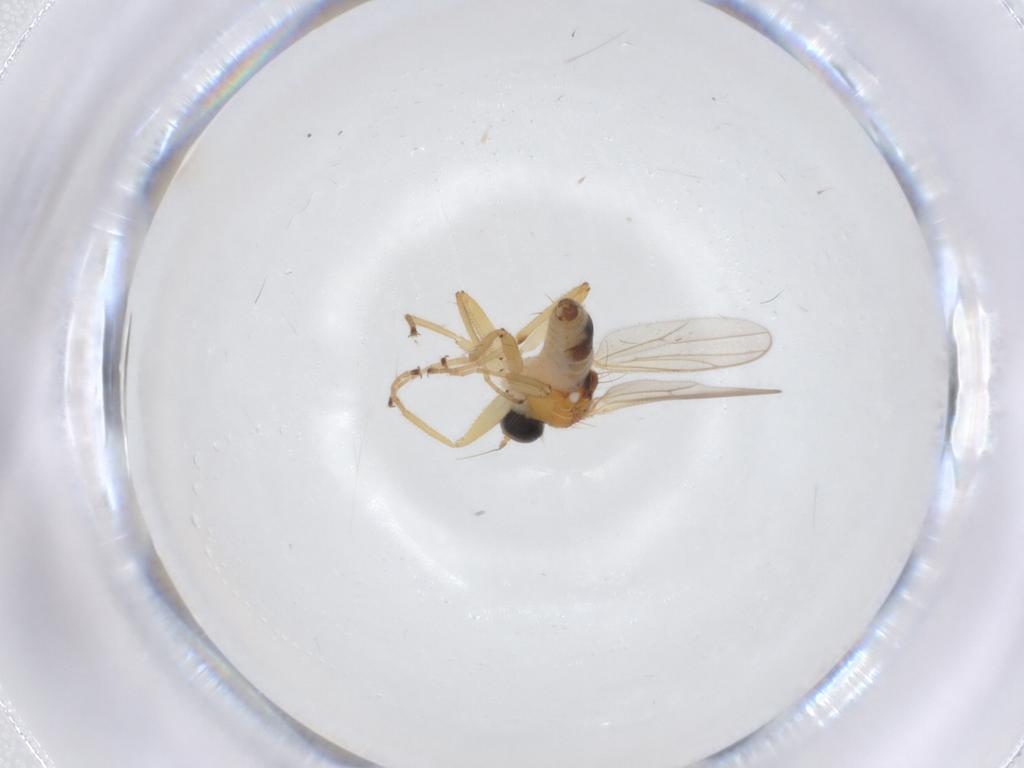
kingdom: Animalia
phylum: Arthropoda
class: Insecta
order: Diptera
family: Hybotidae
